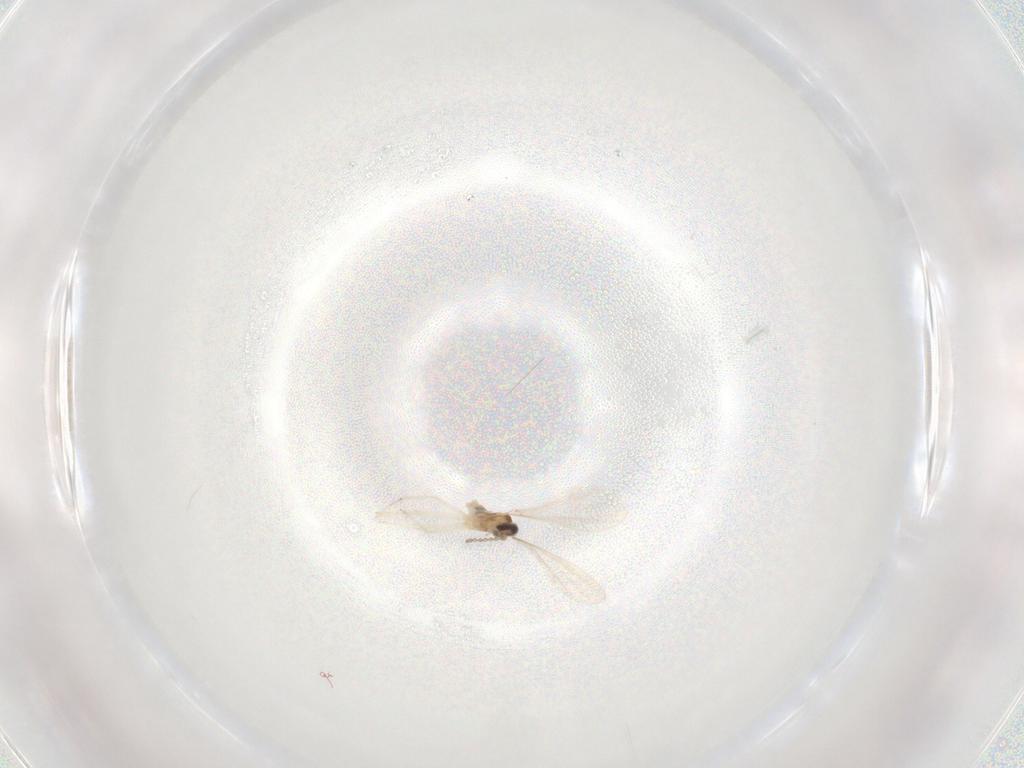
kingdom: Animalia
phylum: Arthropoda
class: Insecta
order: Diptera
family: Cecidomyiidae
